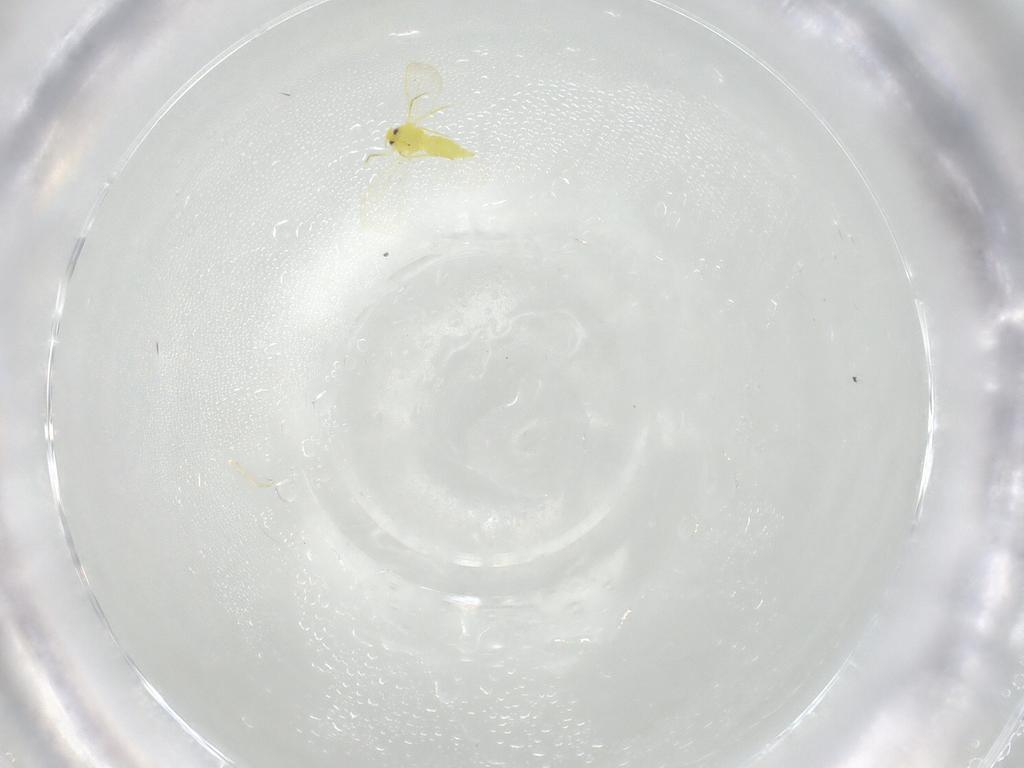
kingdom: Animalia
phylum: Arthropoda
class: Insecta
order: Hemiptera
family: Aleyrodidae
